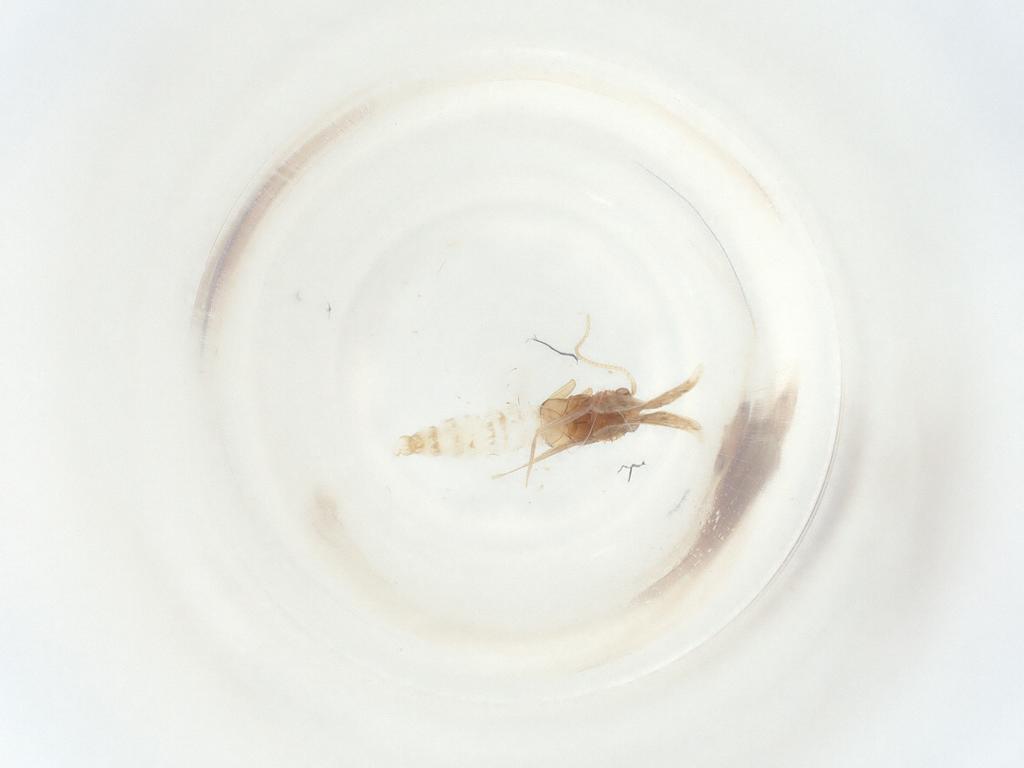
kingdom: Animalia
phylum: Arthropoda
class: Insecta
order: Lepidoptera
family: Nepticulidae
